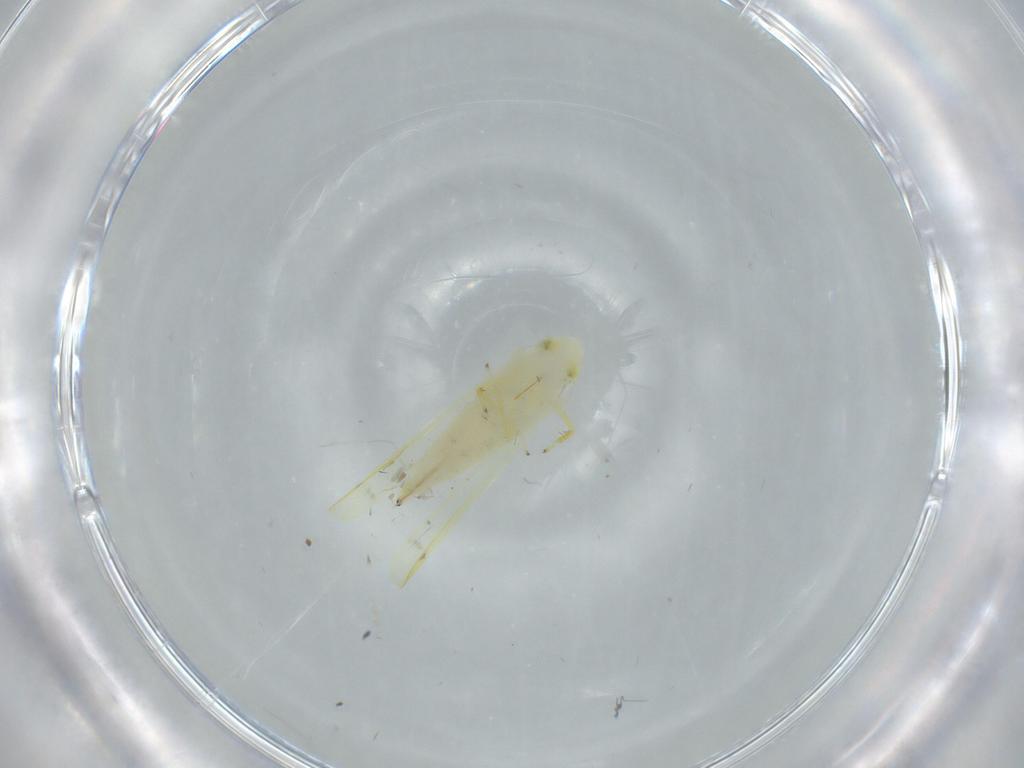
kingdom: Animalia
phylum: Arthropoda
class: Insecta
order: Hemiptera
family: Cicadellidae
